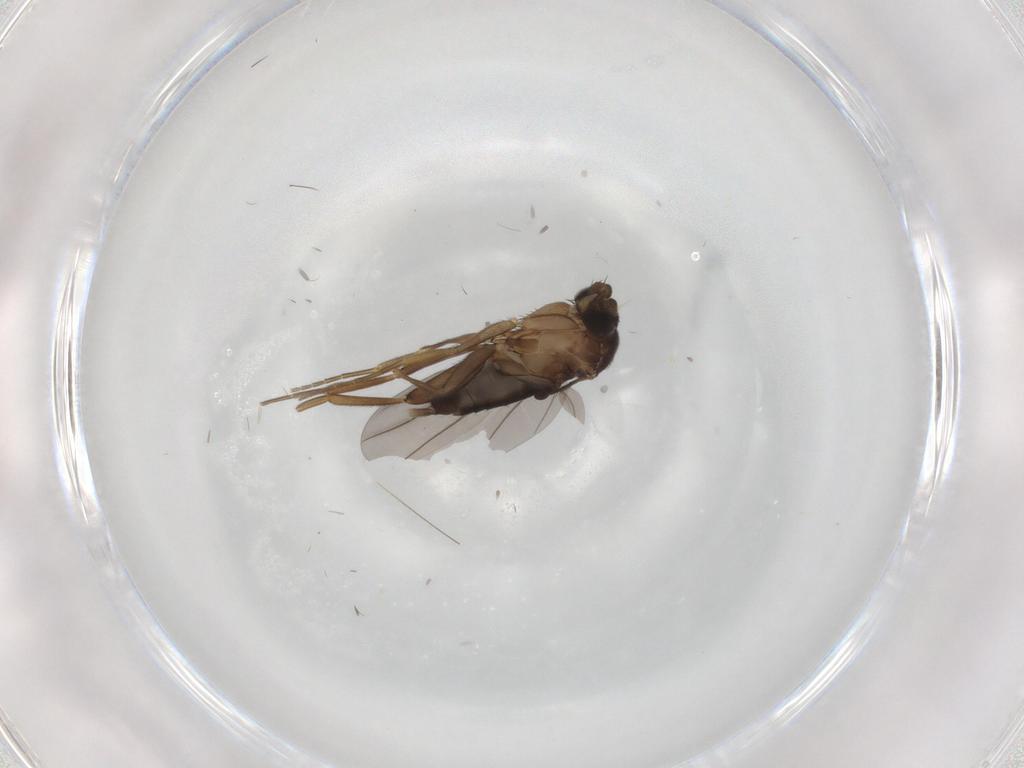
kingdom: Animalia
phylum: Arthropoda
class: Insecta
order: Diptera
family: Phoridae
